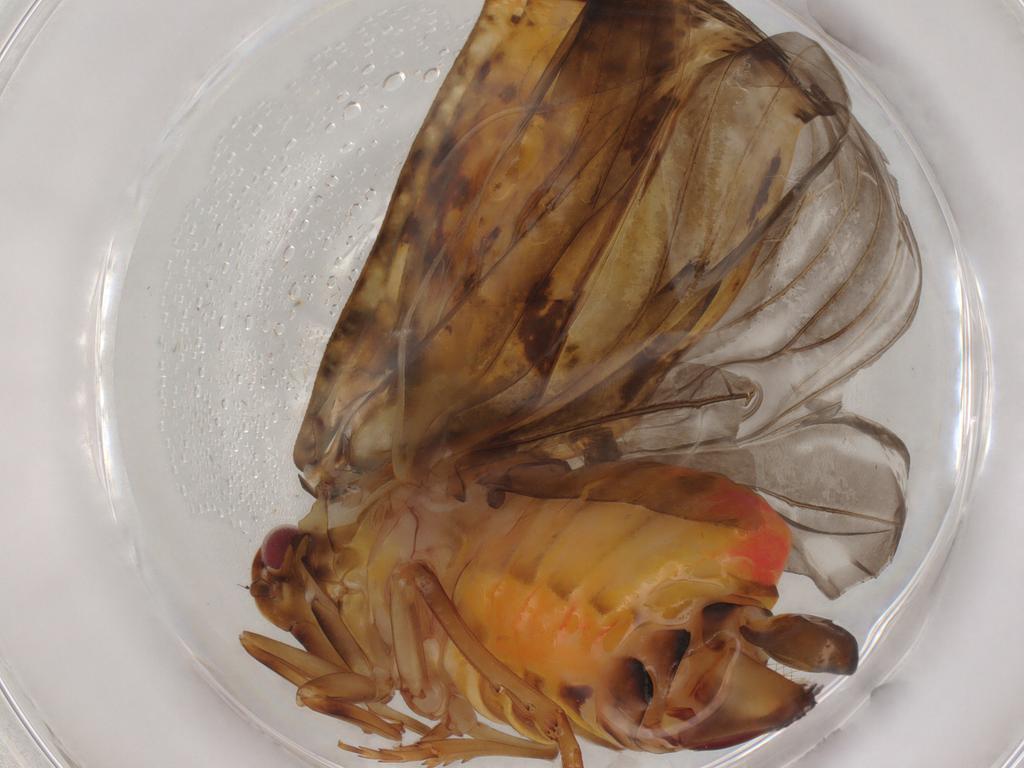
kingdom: Animalia
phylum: Arthropoda
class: Insecta
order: Hemiptera
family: Flatidae
